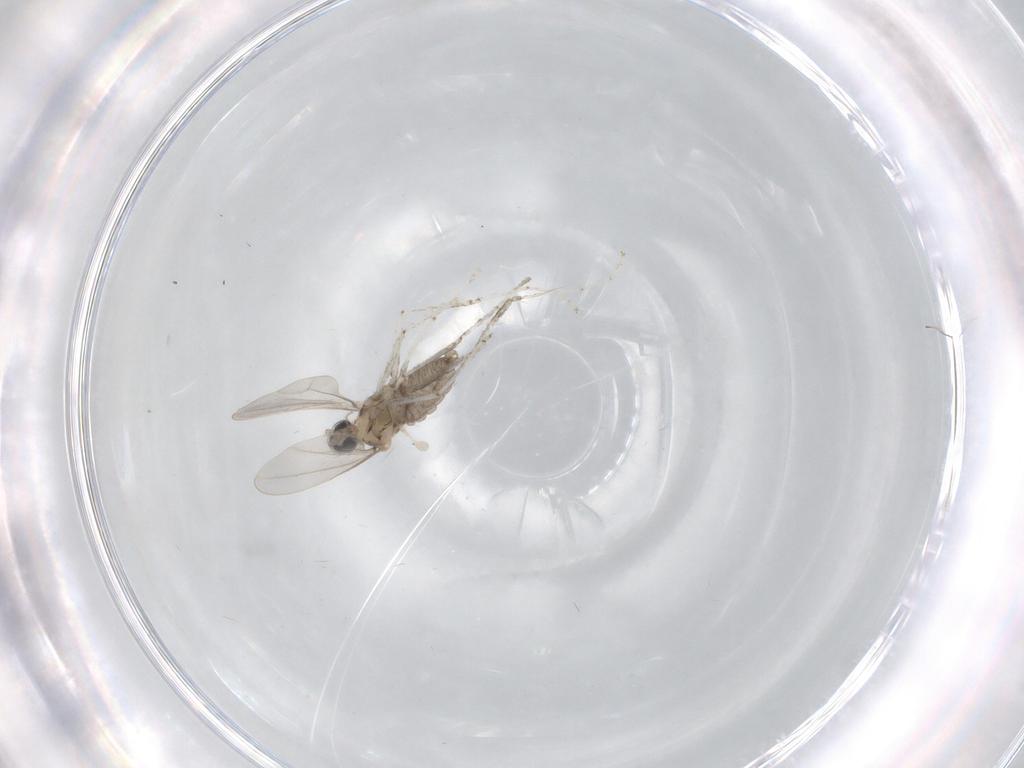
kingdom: Animalia
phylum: Arthropoda
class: Insecta
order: Diptera
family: Cecidomyiidae
